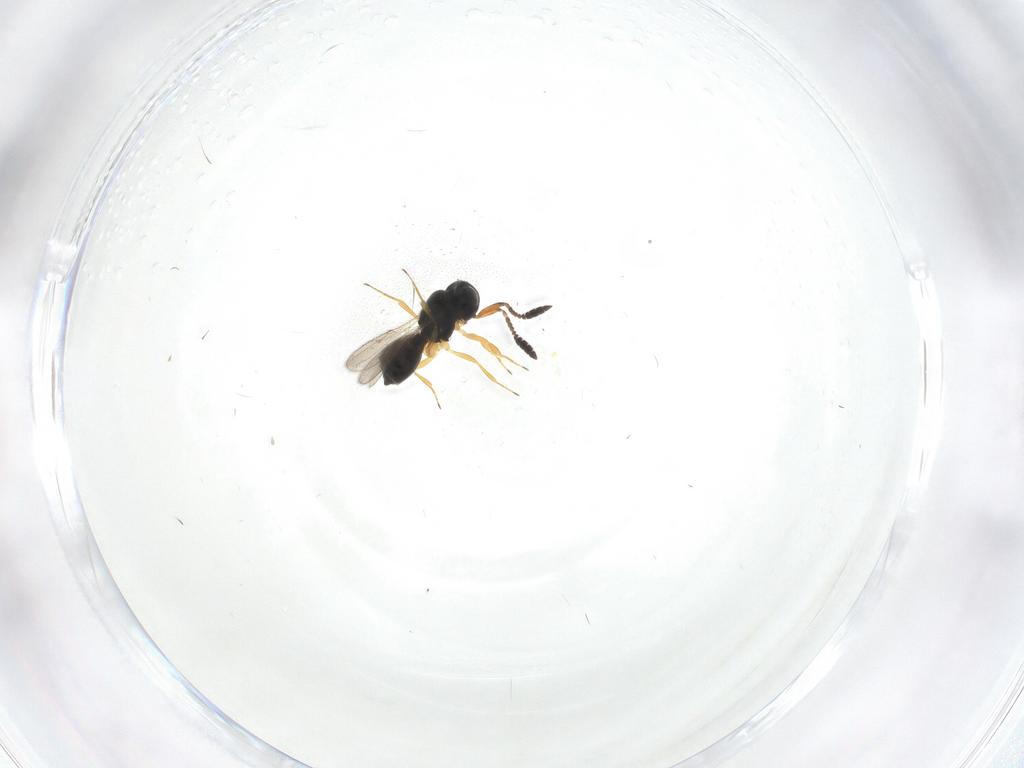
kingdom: Animalia
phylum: Arthropoda
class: Insecta
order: Hymenoptera
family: Scelionidae
